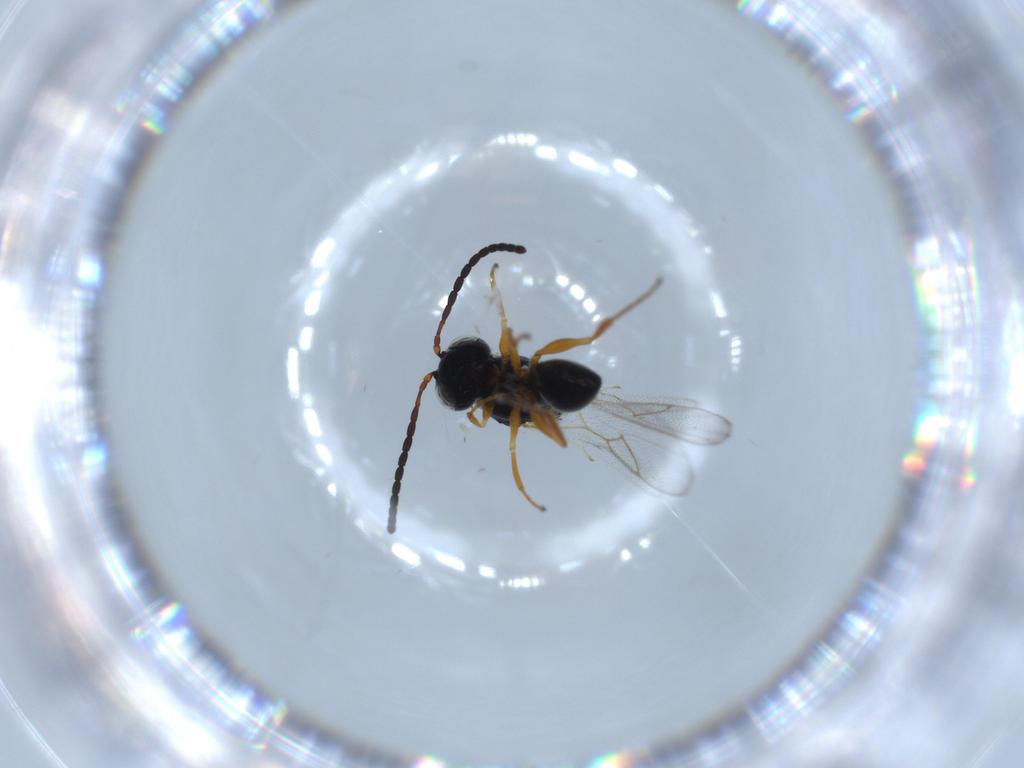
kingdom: Animalia
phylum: Arthropoda
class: Insecta
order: Hymenoptera
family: Figitidae
